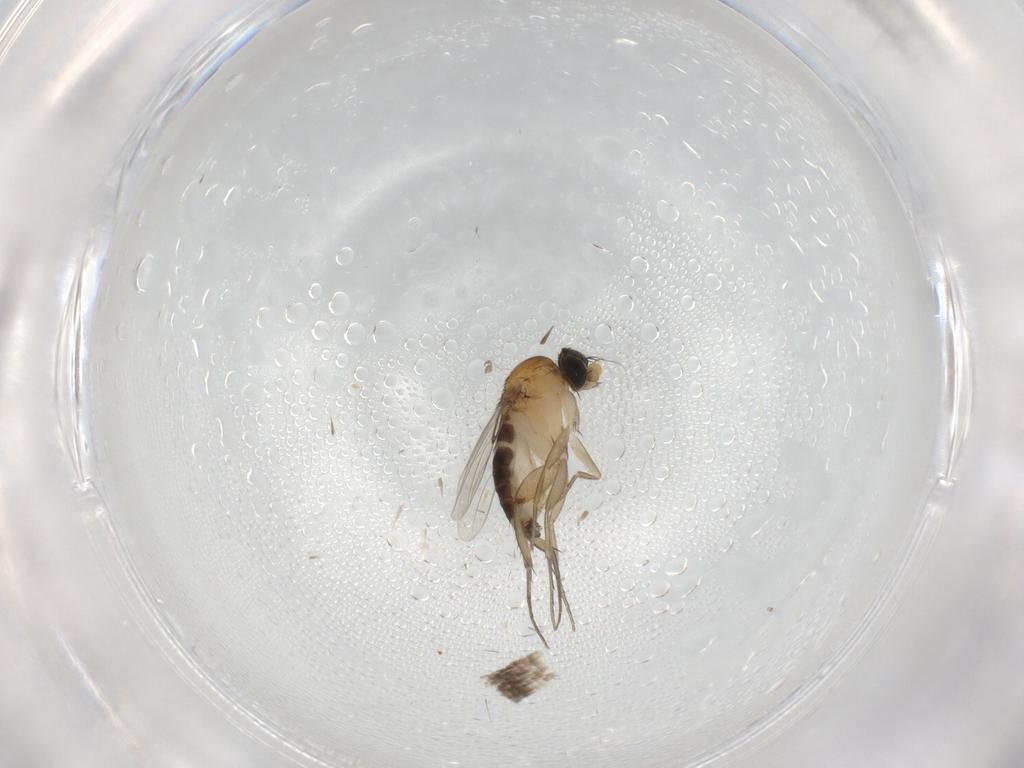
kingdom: Animalia
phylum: Arthropoda
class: Insecta
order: Diptera
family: Phoridae
